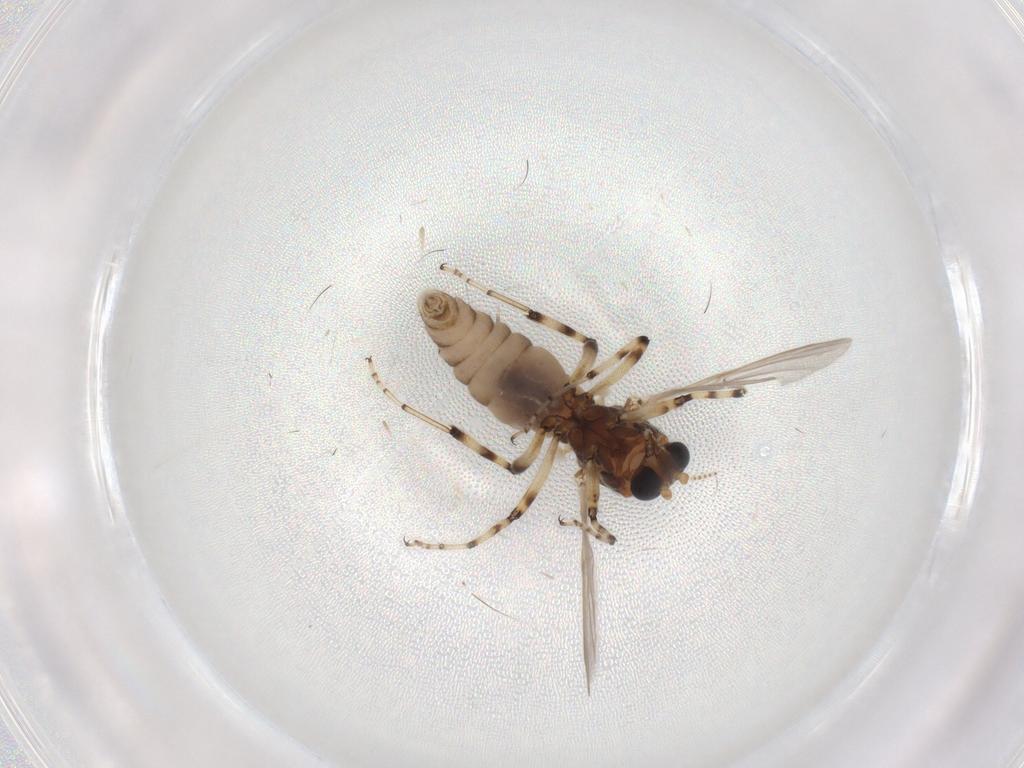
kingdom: Animalia
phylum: Arthropoda
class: Insecta
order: Diptera
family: Ceratopogonidae
